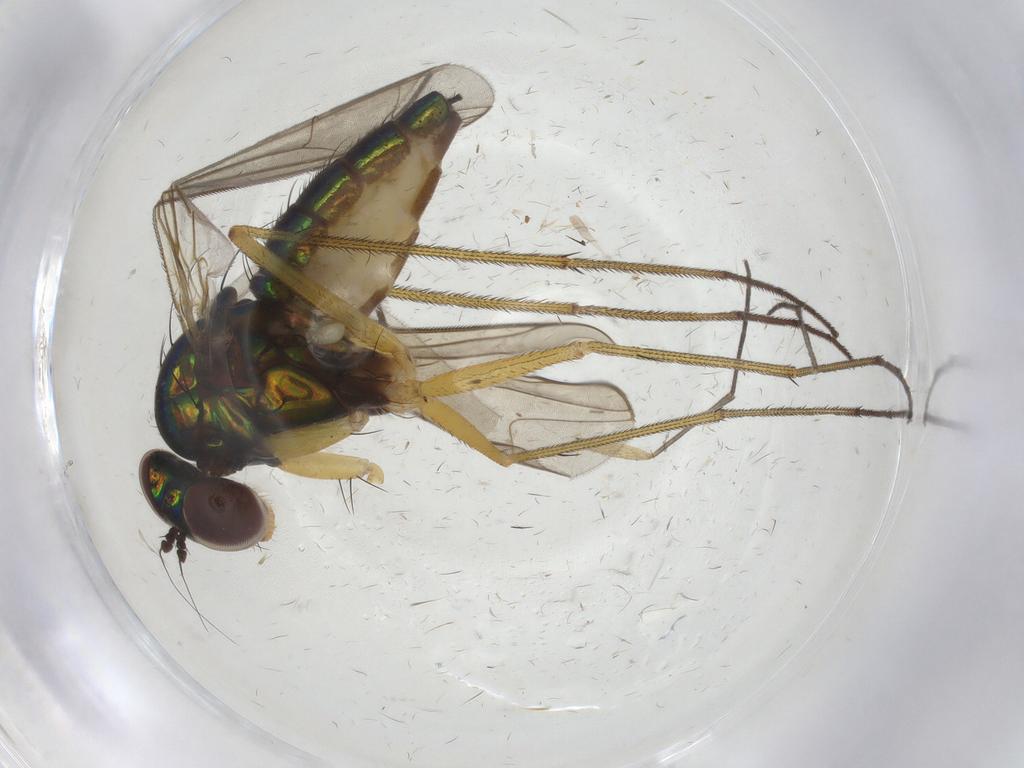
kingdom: Animalia
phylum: Arthropoda
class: Insecta
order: Diptera
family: Dolichopodidae
